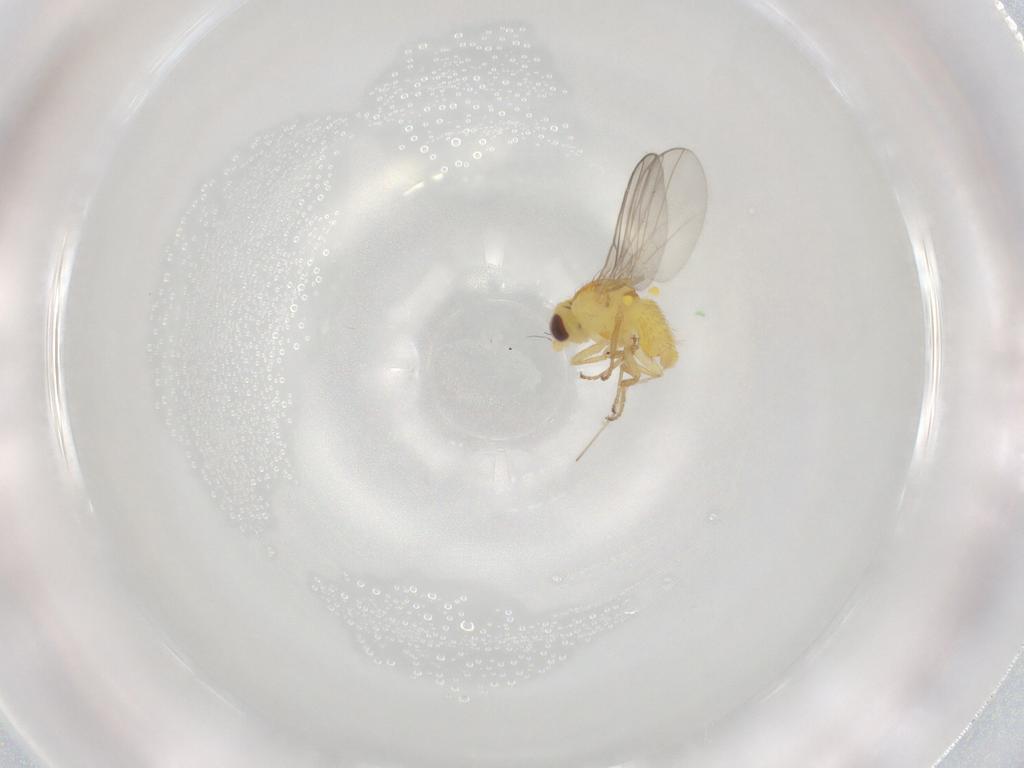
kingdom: Animalia
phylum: Arthropoda
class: Insecta
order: Diptera
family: Agromyzidae
